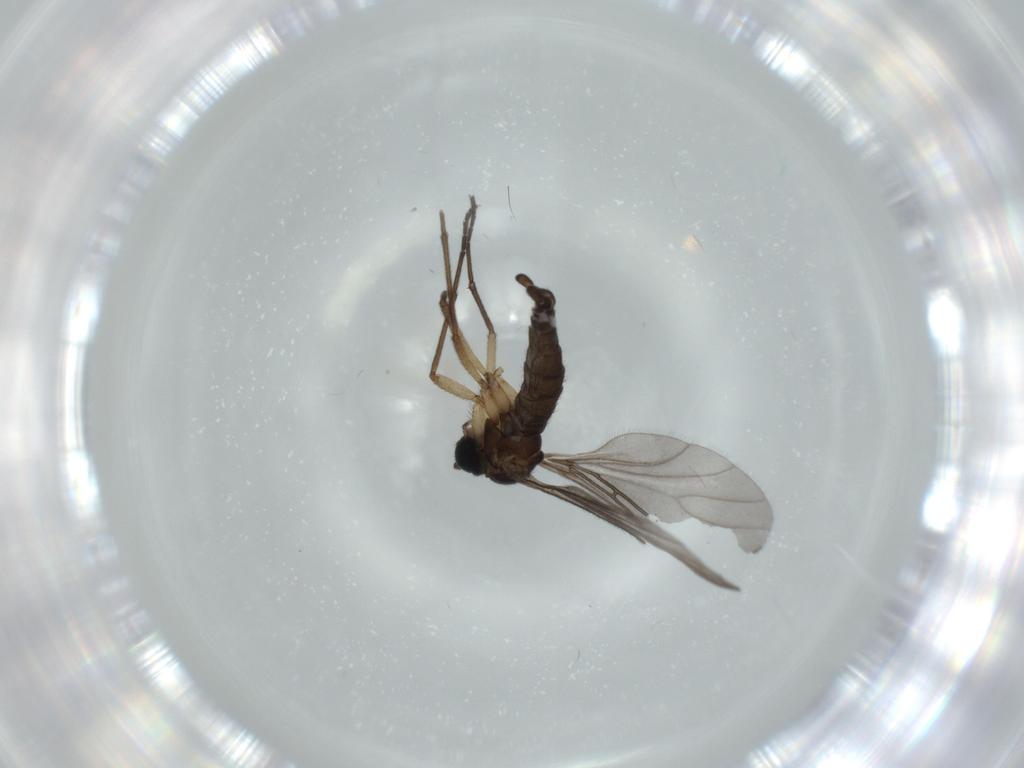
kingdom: Animalia
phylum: Arthropoda
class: Insecta
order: Diptera
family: Sciaridae
